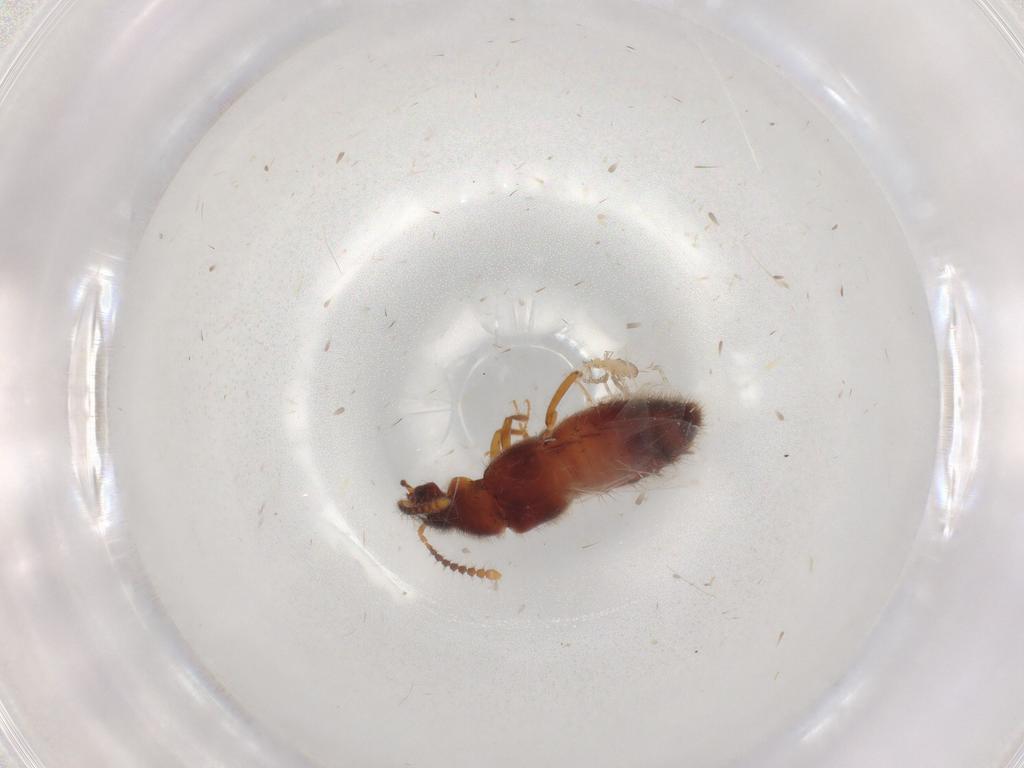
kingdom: Animalia
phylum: Arthropoda
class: Insecta
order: Coleoptera
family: Staphylinidae
